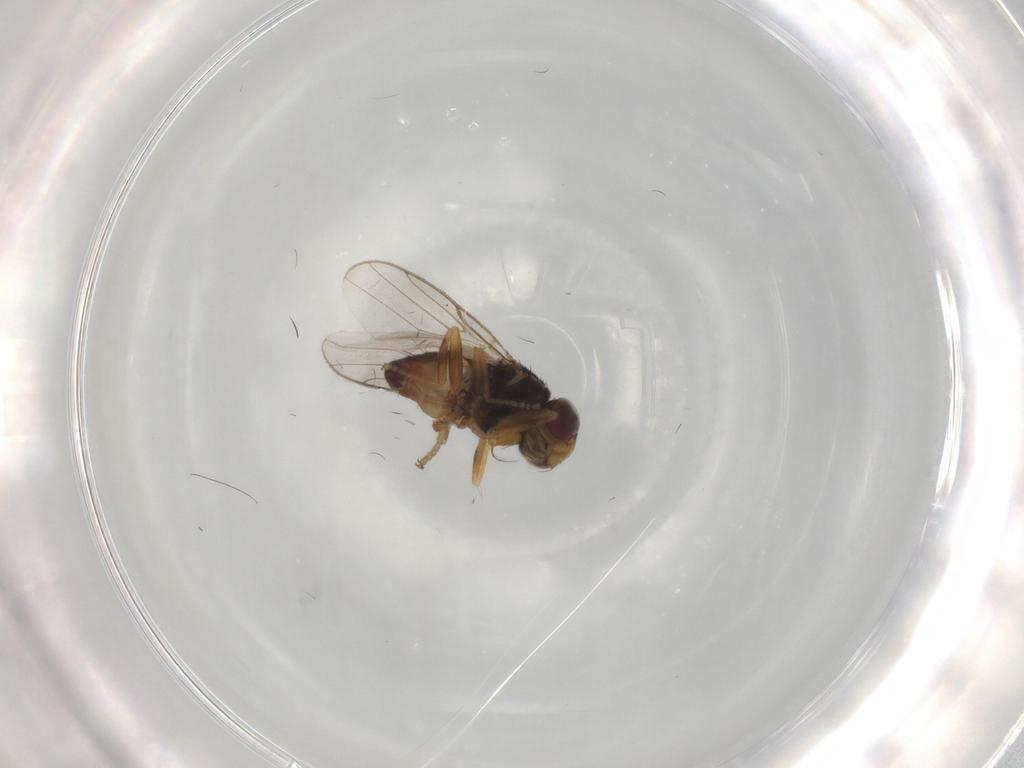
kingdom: Animalia
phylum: Arthropoda
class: Insecta
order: Diptera
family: Chloropidae
